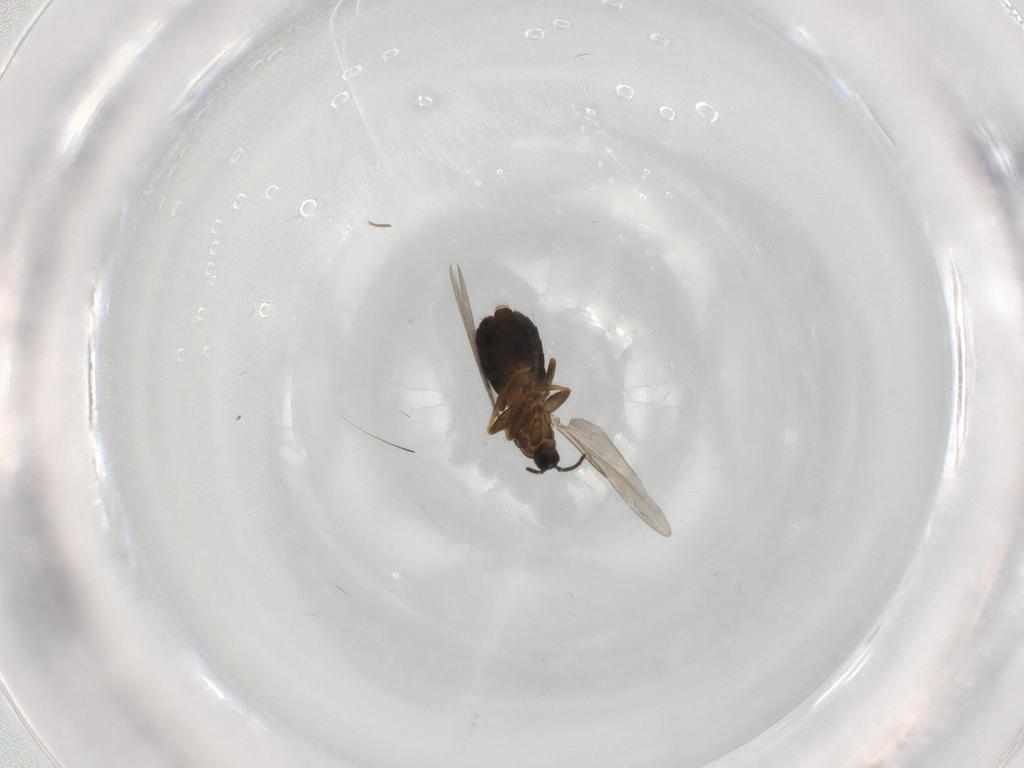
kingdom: Animalia
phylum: Arthropoda
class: Insecta
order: Diptera
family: Scatopsidae
